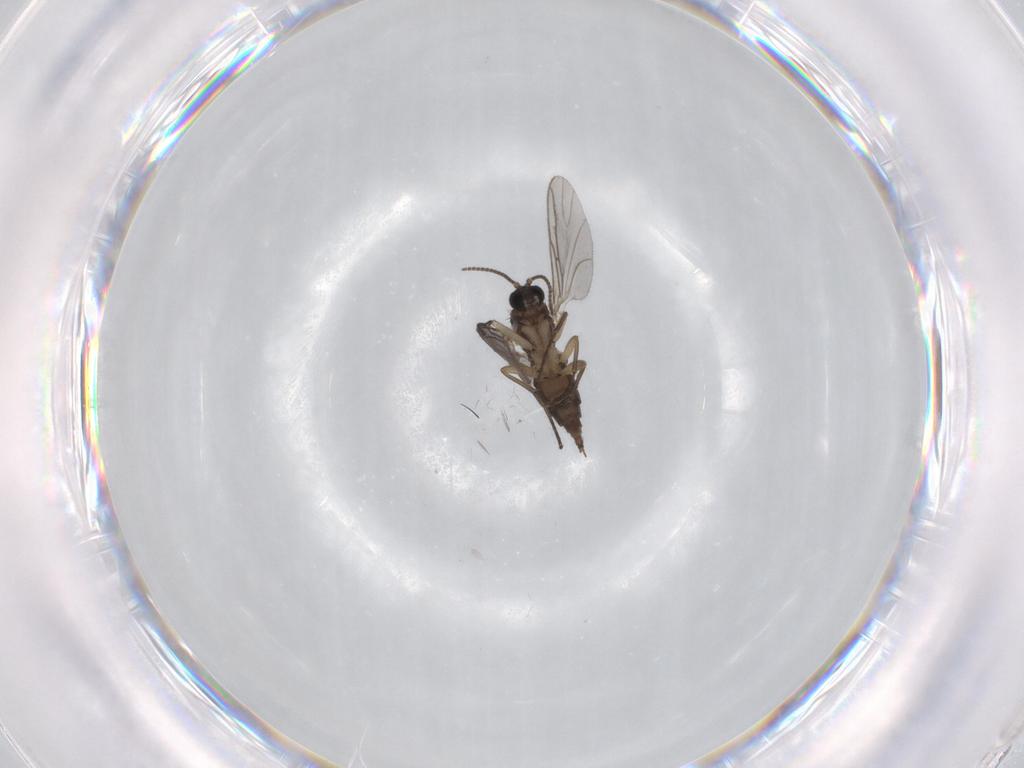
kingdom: Animalia
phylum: Arthropoda
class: Insecta
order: Diptera
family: Sciaridae
